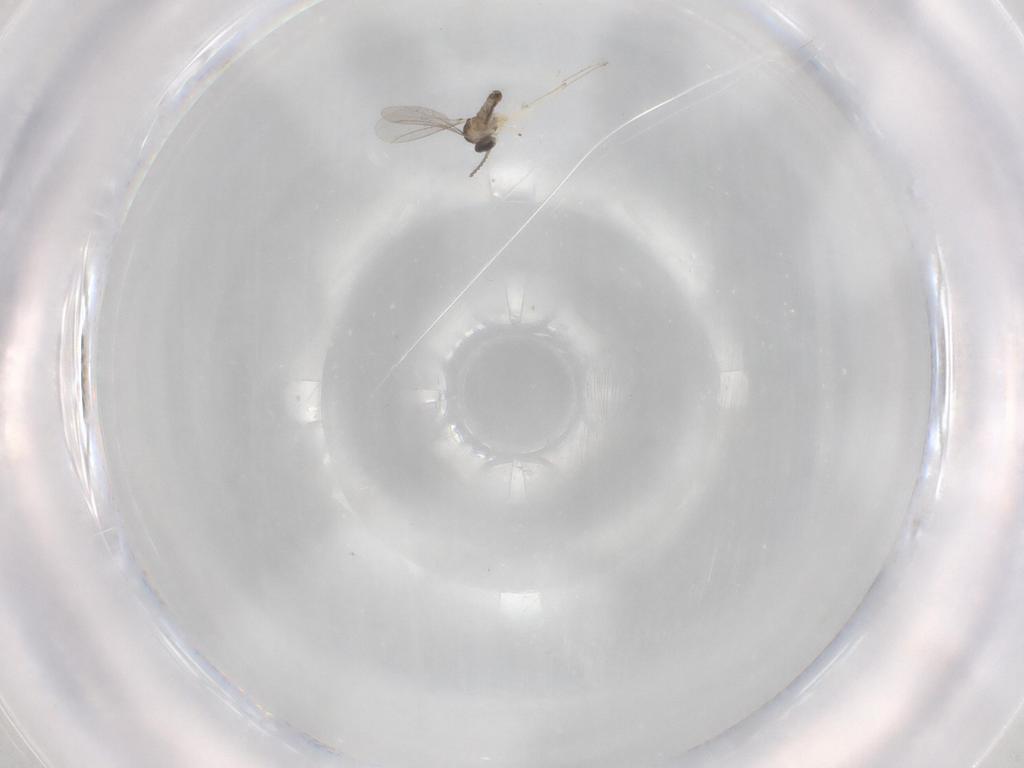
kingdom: Animalia
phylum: Arthropoda
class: Insecta
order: Diptera
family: Cecidomyiidae
